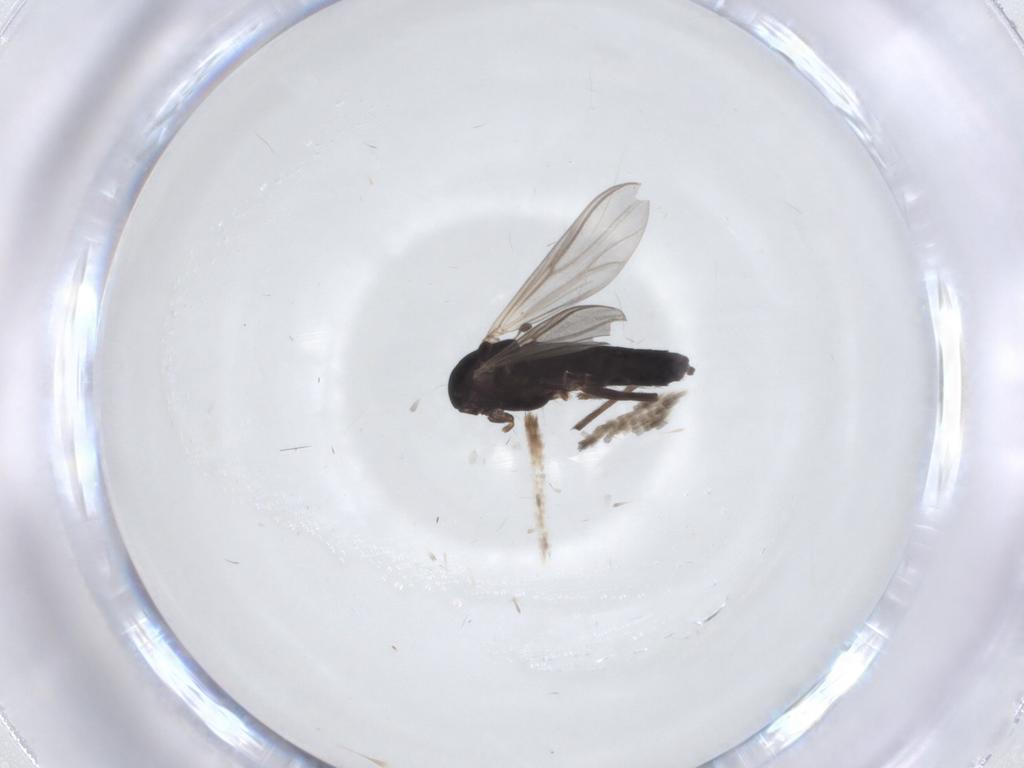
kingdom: Animalia
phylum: Arthropoda
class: Insecta
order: Diptera
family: Chironomidae
